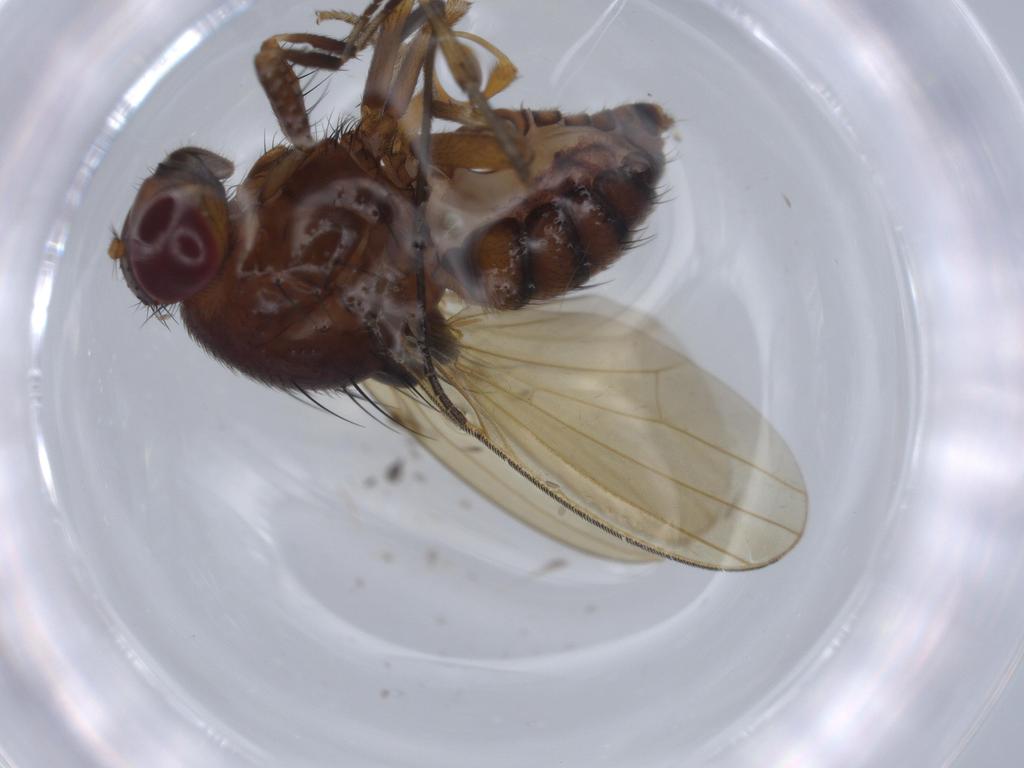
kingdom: Animalia
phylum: Arthropoda
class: Insecta
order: Diptera
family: Sciaridae
